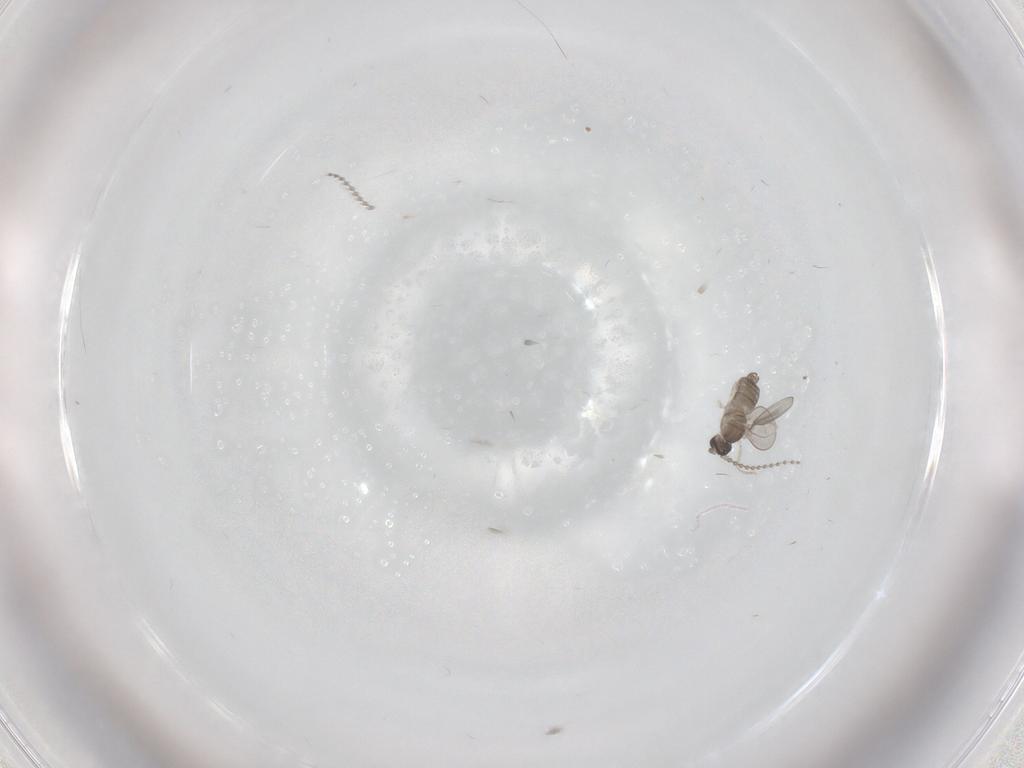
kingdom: Animalia
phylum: Arthropoda
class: Insecta
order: Diptera
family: Cecidomyiidae
